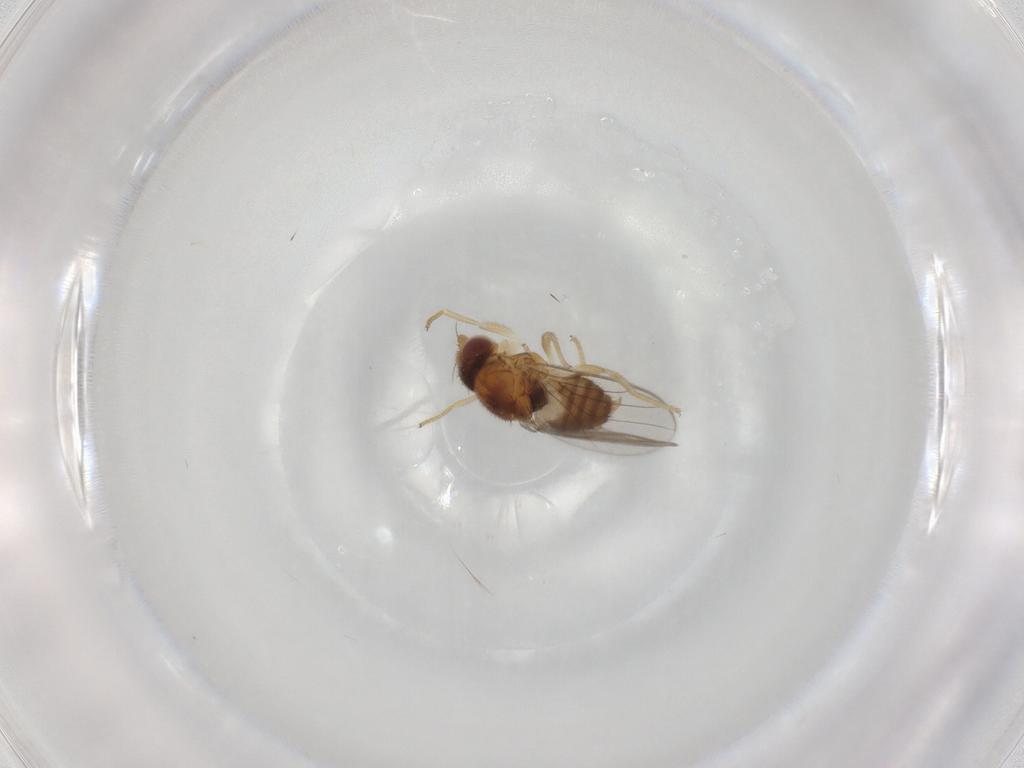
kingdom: Animalia
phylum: Arthropoda
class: Insecta
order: Diptera
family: Chloropidae
